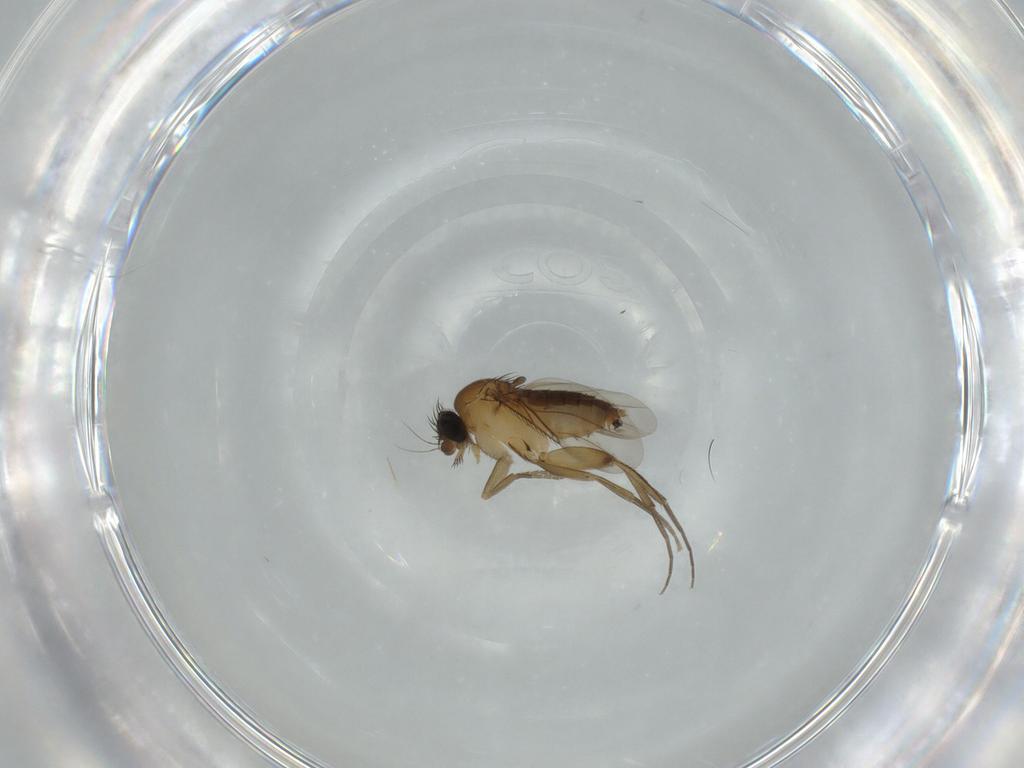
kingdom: Animalia
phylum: Arthropoda
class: Insecta
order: Diptera
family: Phoridae
